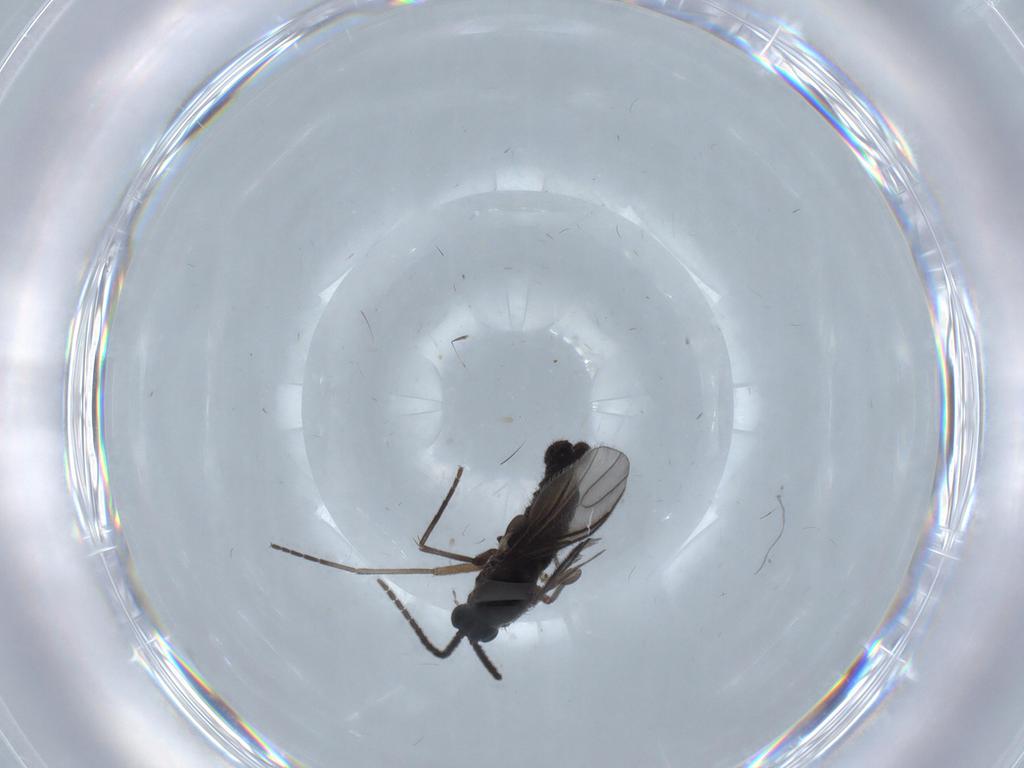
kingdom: Animalia
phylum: Arthropoda
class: Insecta
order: Diptera
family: Sciaridae
